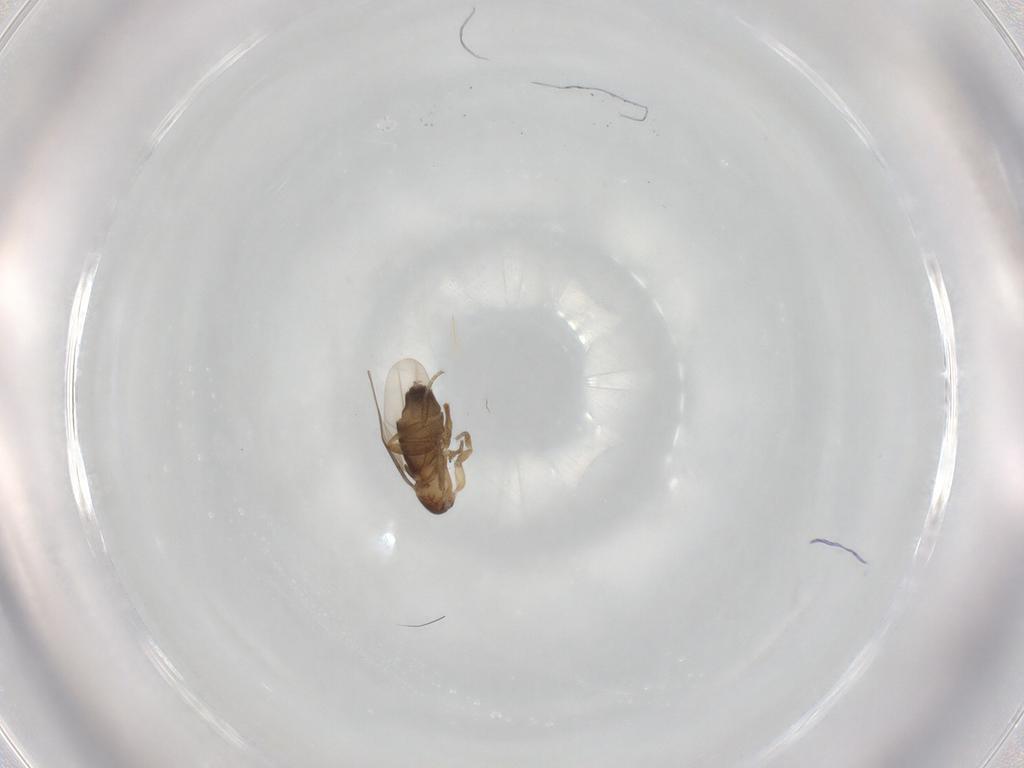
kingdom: Animalia
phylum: Arthropoda
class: Insecta
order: Diptera
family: Phoridae
